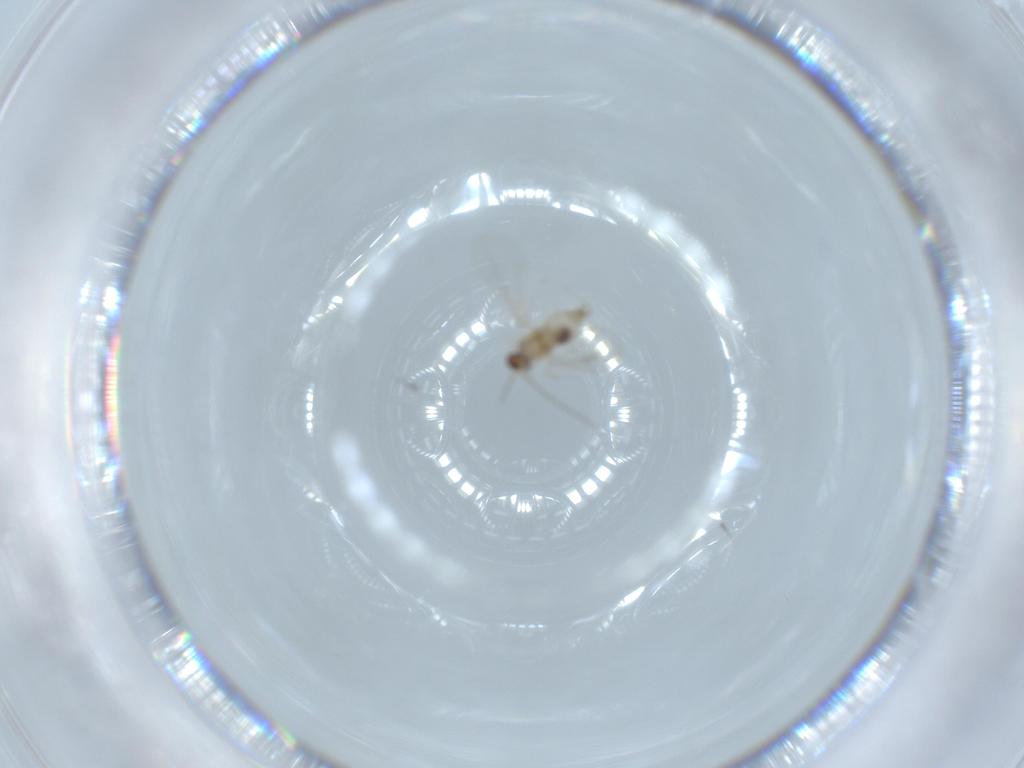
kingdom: Animalia
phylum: Arthropoda
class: Insecta
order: Diptera
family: Cecidomyiidae
